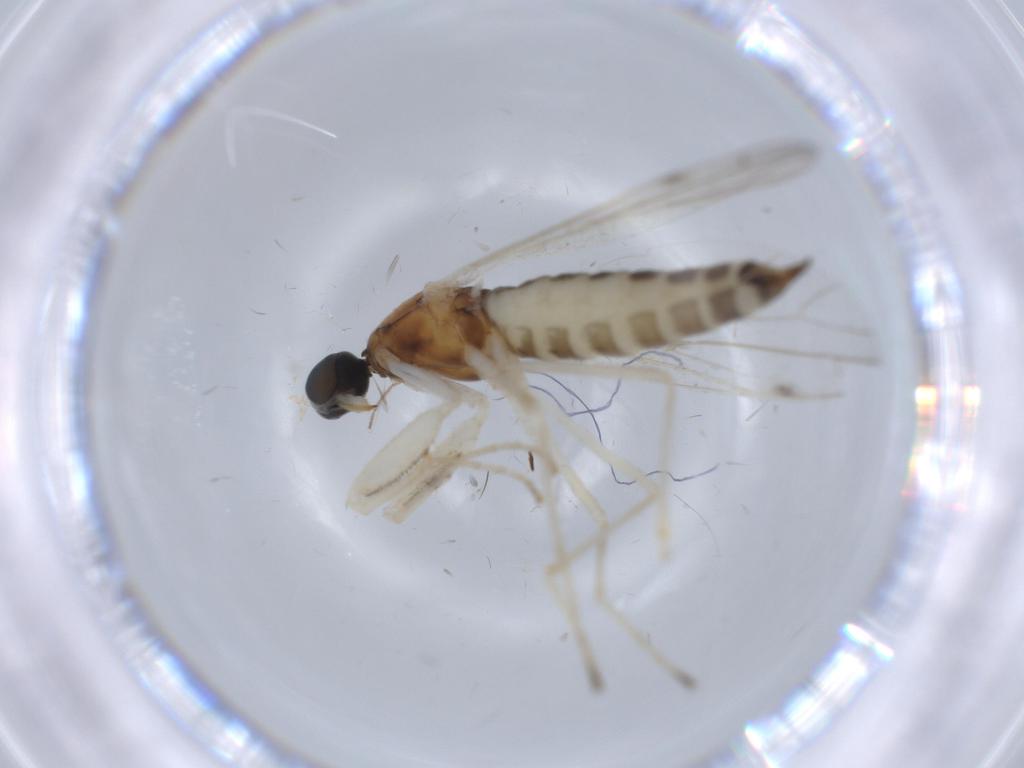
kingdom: Animalia
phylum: Arthropoda
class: Insecta
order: Diptera
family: Empididae
